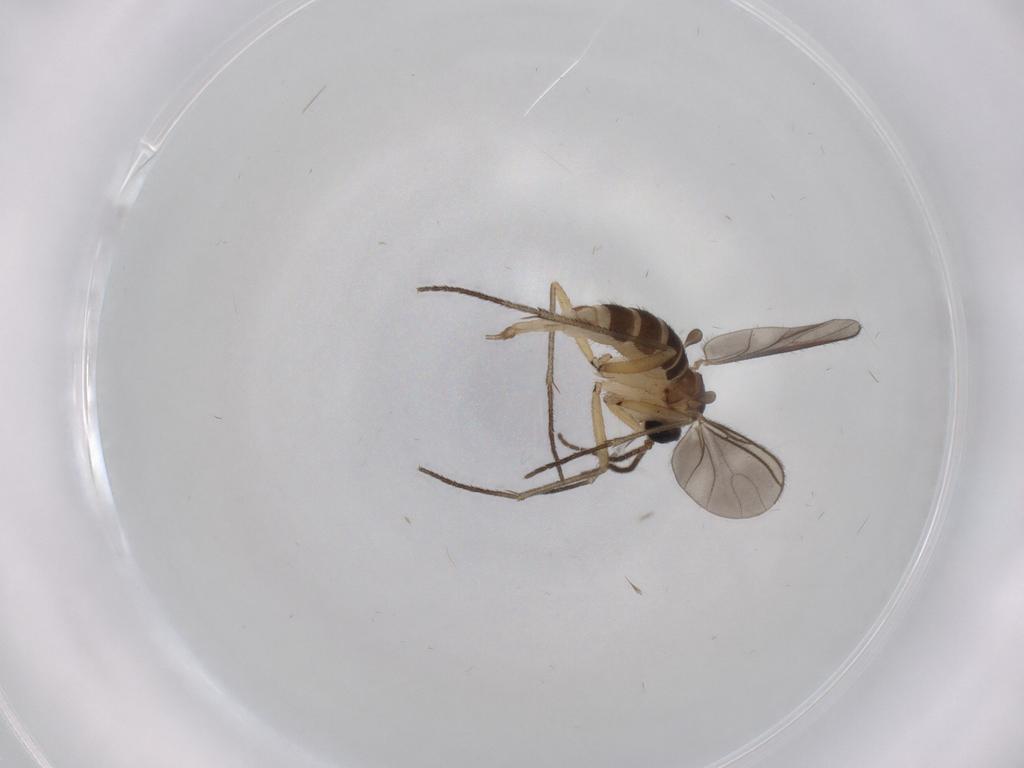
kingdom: Animalia
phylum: Arthropoda
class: Insecta
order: Diptera
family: Sciaridae
